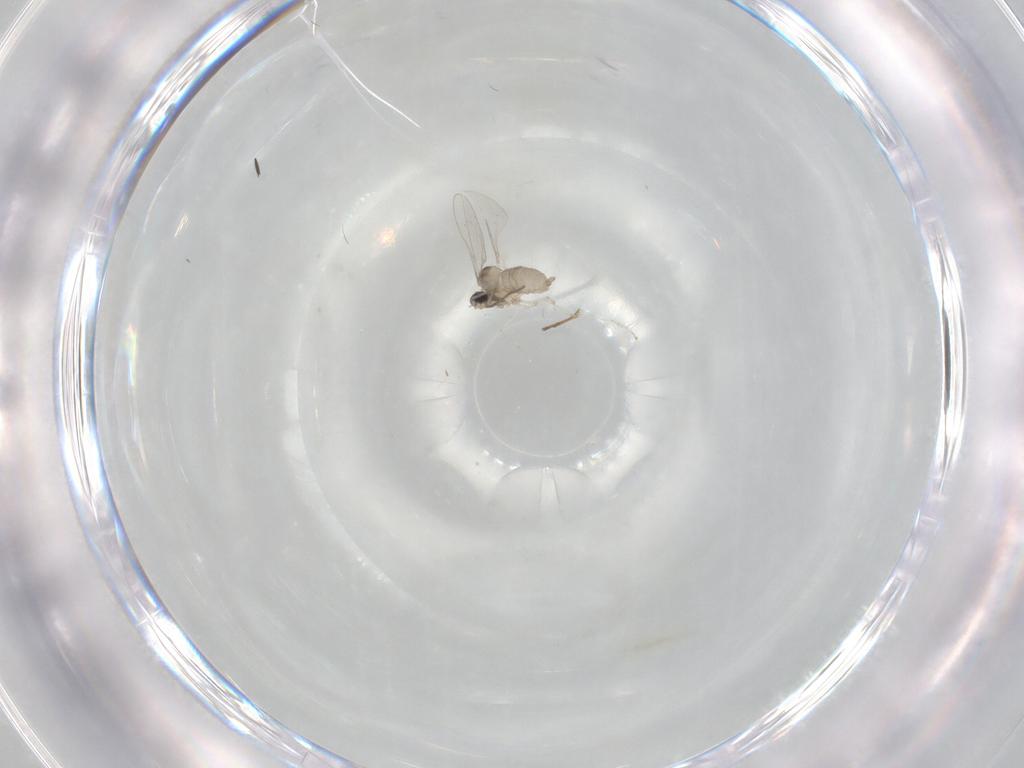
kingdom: Animalia
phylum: Arthropoda
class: Insecta
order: Diptera
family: Cecidomyiidae
